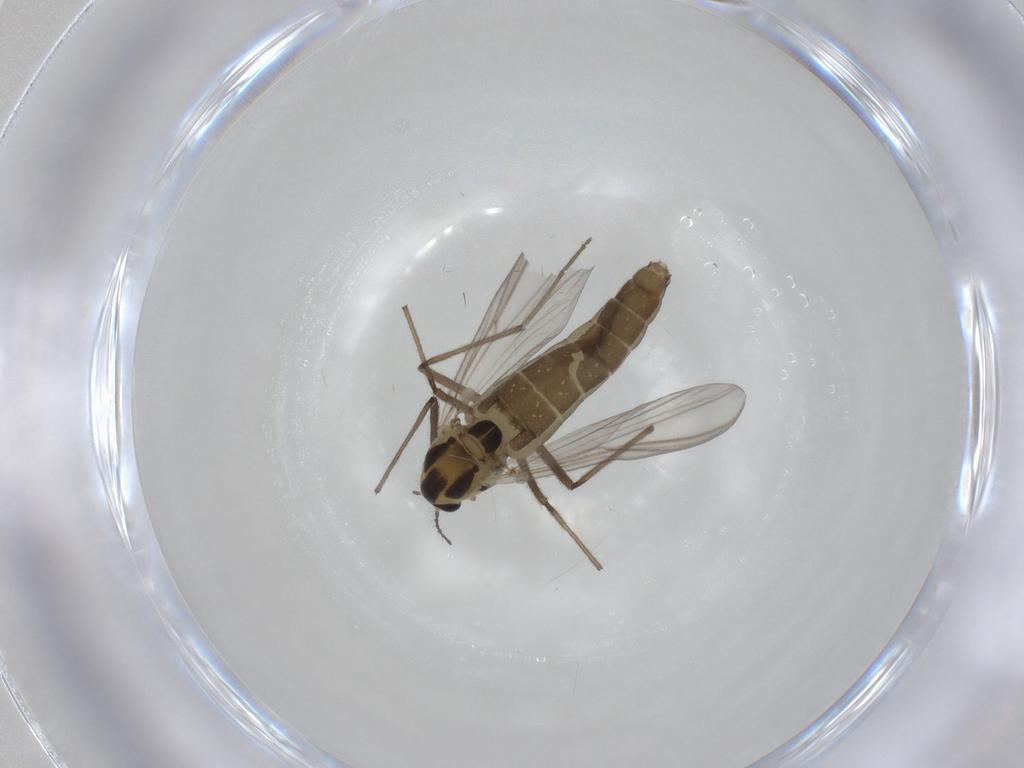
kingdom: Animalia
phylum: Arthropoda
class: Insecta
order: Diptera
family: Chironomidae
